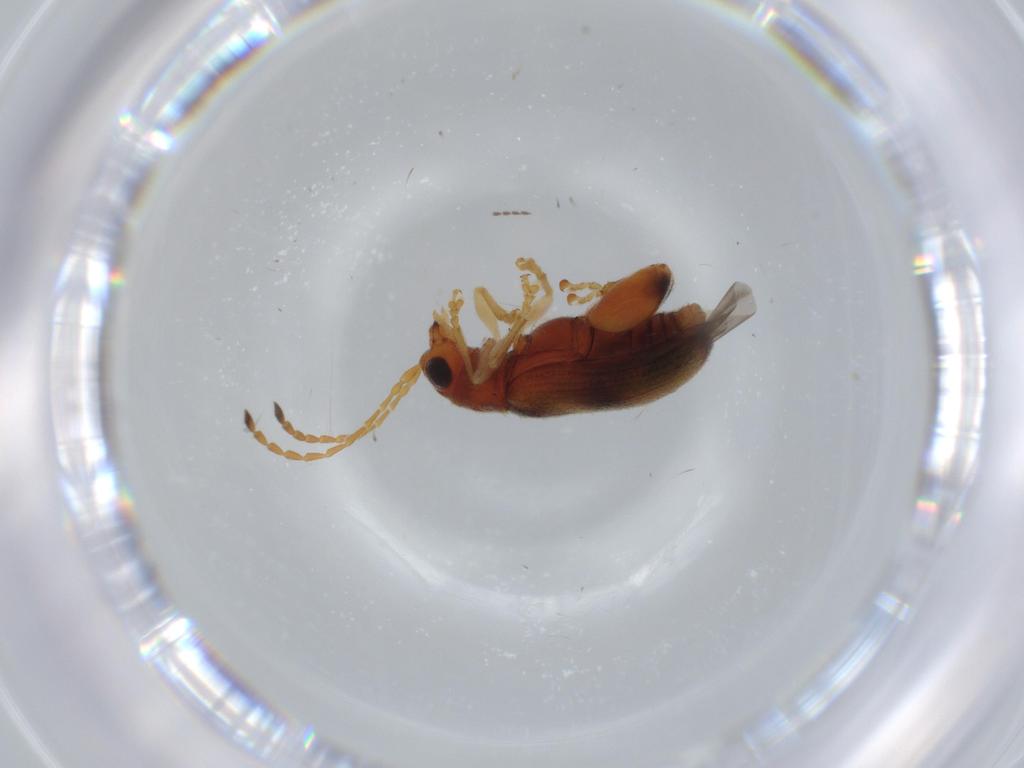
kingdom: Animalia
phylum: Arthropoda
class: Insecta
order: Coleoptera
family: Chrysomelidae
